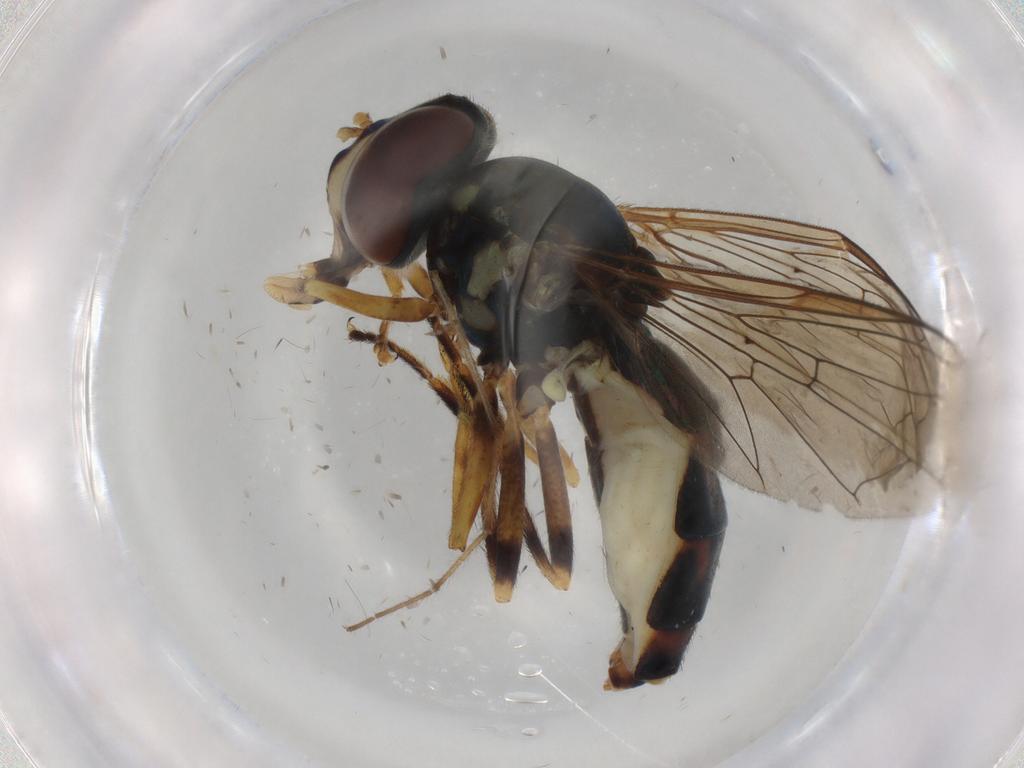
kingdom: Animalia
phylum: Arthropoda
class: Insecta
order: Diptera
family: Syrphidae
